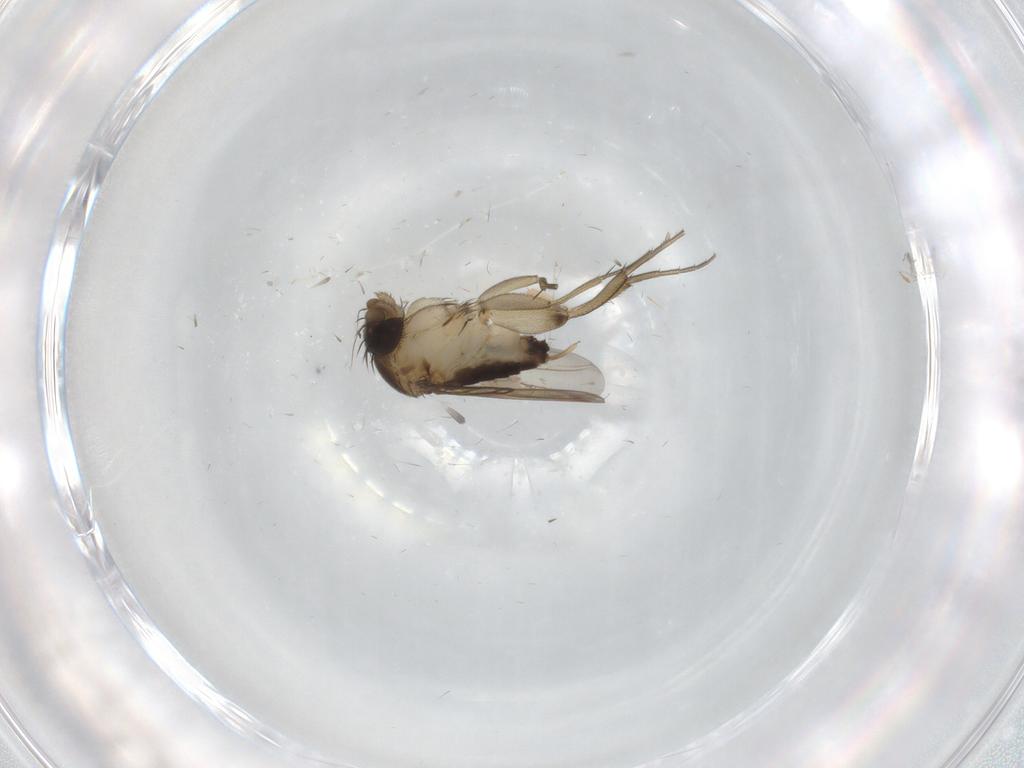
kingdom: Animalia
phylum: Arthropoda
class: Insecta
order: Diptera
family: Phoridae
